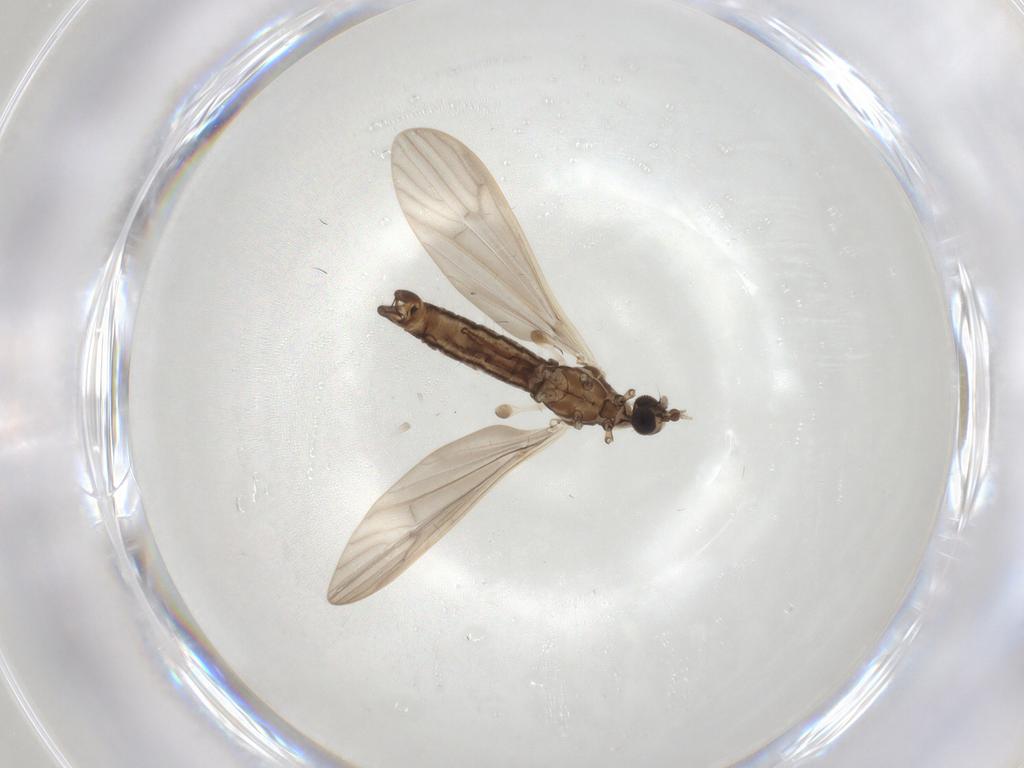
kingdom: Animalia
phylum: Arthropoda
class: Insecta
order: Diptera
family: Limoniidae
